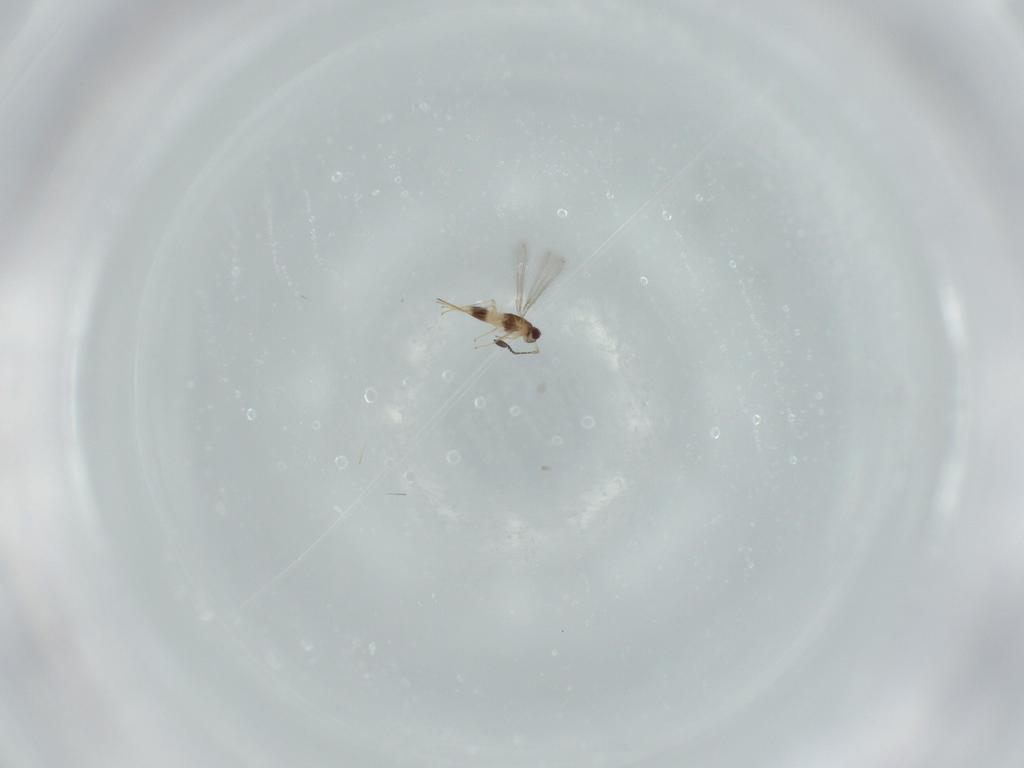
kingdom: Animalia
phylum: Arthropoda
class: Insecta
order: Hymenoptera
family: Mymaridae
